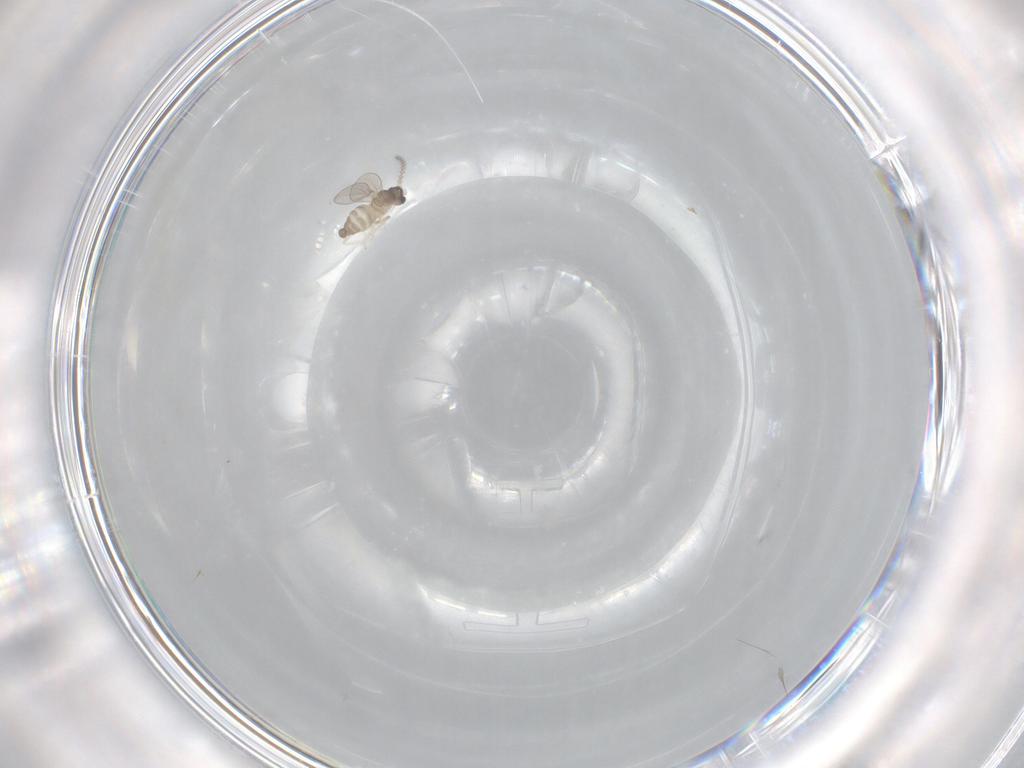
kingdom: Animalia
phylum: Arthropoda
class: Insecta
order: Diptera
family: Cecidomyiidae
